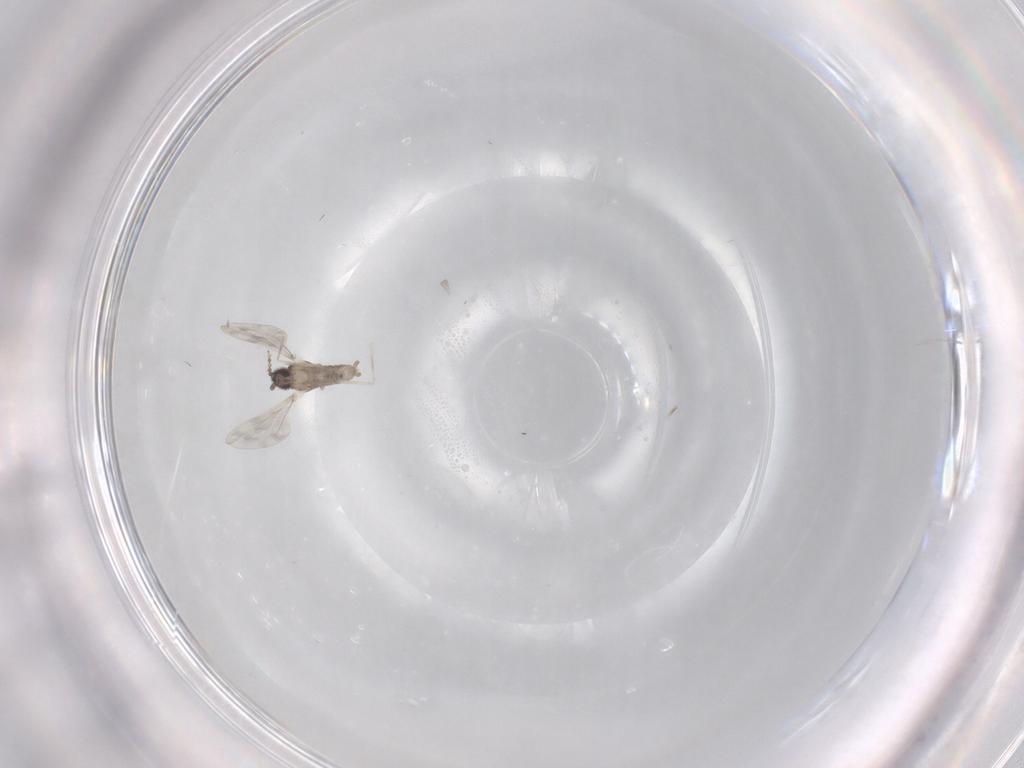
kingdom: Animalia
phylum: Arthropoda
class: Insecta
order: Diptera
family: Cecidomyiidae
